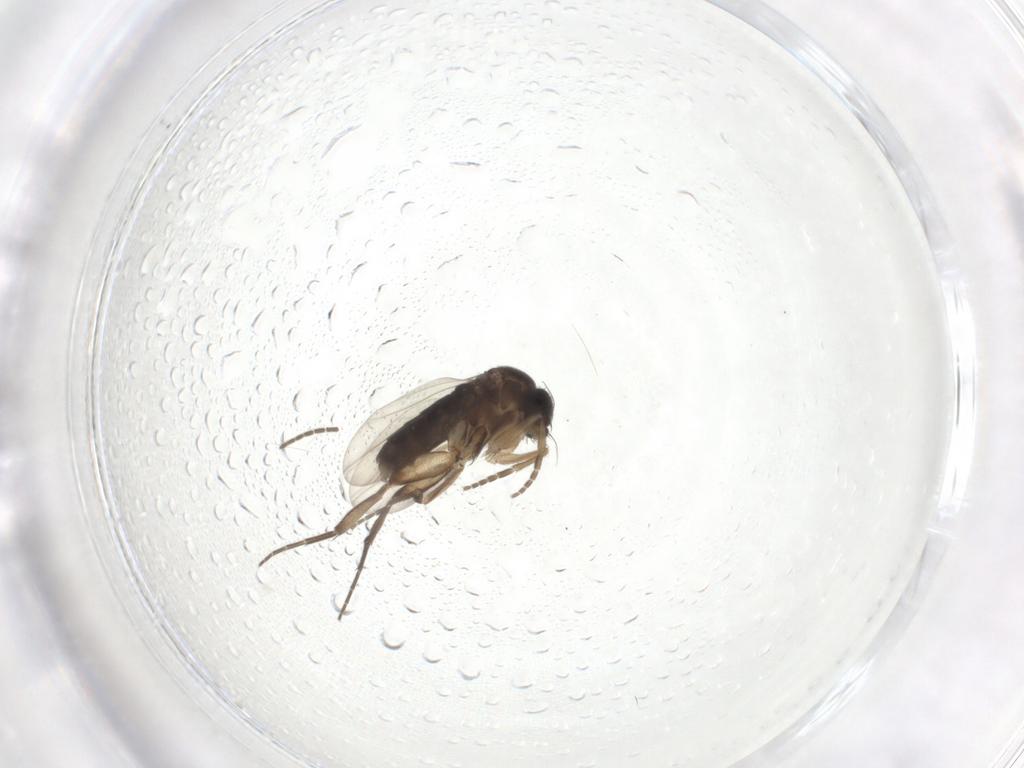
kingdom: Animalia
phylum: Arthropoda
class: Insecta
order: Diptera
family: Phoridae
